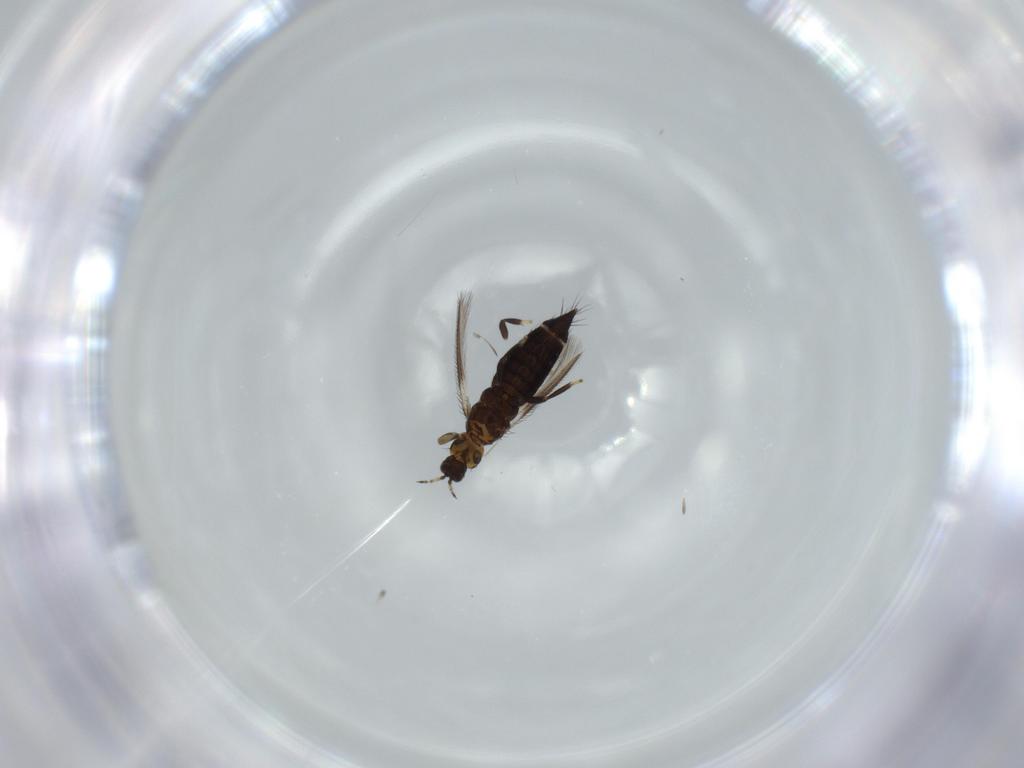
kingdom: Animalia
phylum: Arthropoda
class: Insecta
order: Thysanoptera
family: Thripidae
